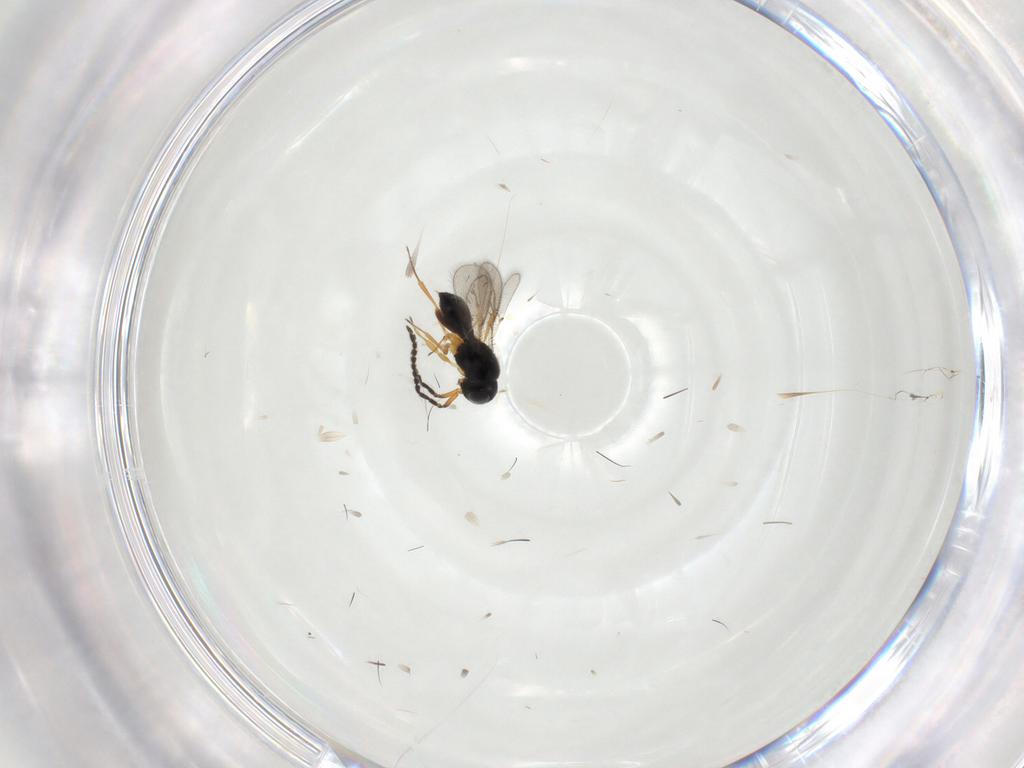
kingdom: Animalia
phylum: Arthropoda
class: Insecta
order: Hymenoptera
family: Scelionidae
